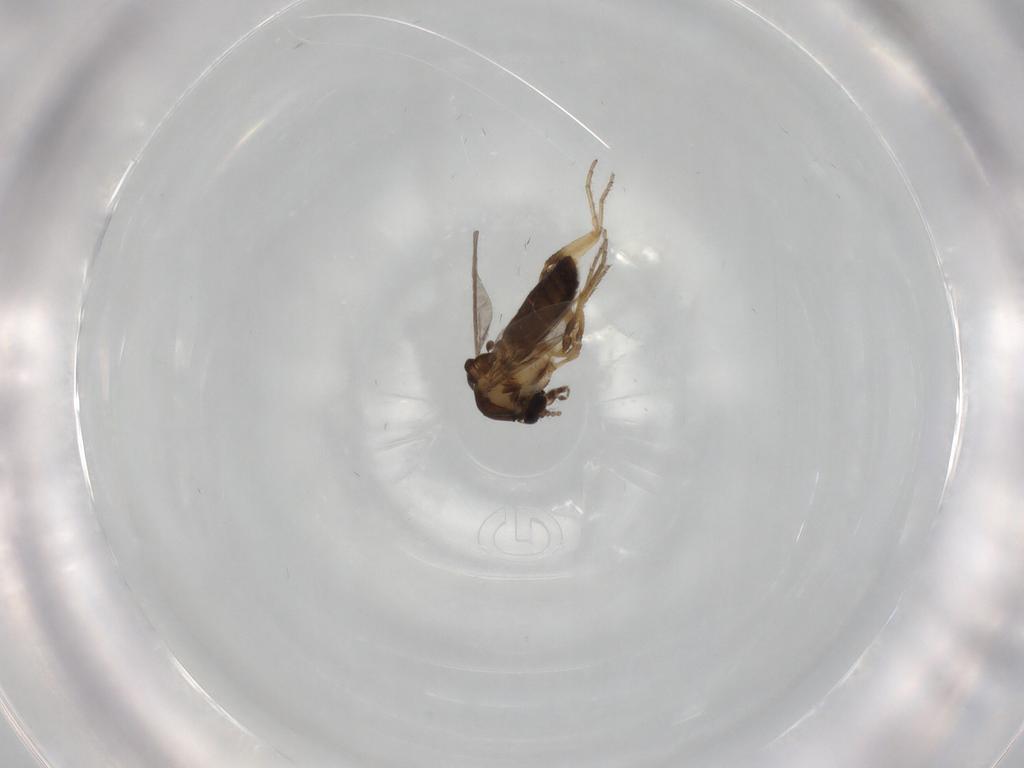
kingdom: Animalia
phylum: Arthropoda
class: Insecta
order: Diptera
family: Ceratopogonidae
